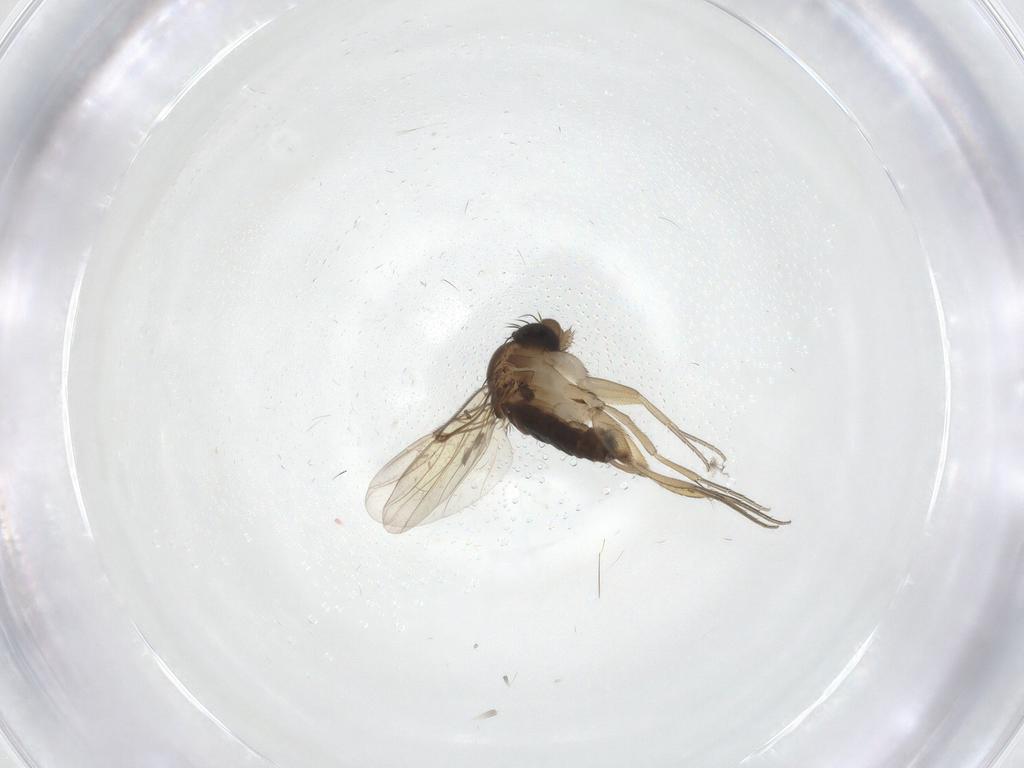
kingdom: Animalia
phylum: Arthropoda
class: Insecta
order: Diptera
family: Phoridae
